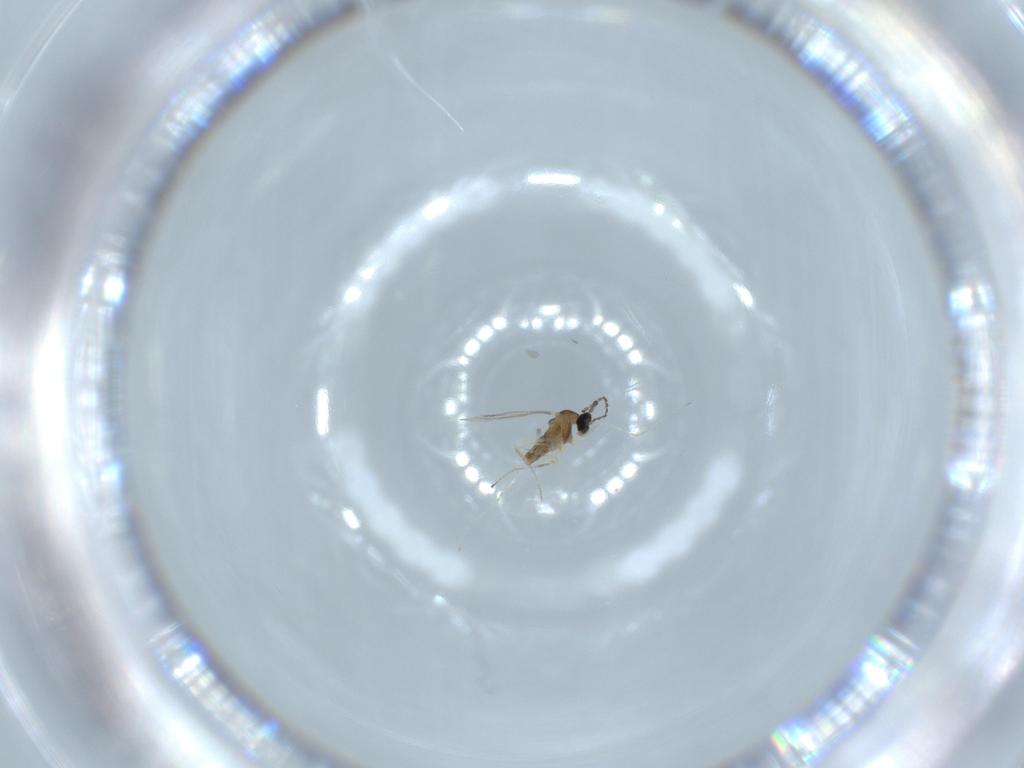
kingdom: Animalia
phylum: Arthropoda
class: Insecta
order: Diptera
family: Cecidomyiidae
